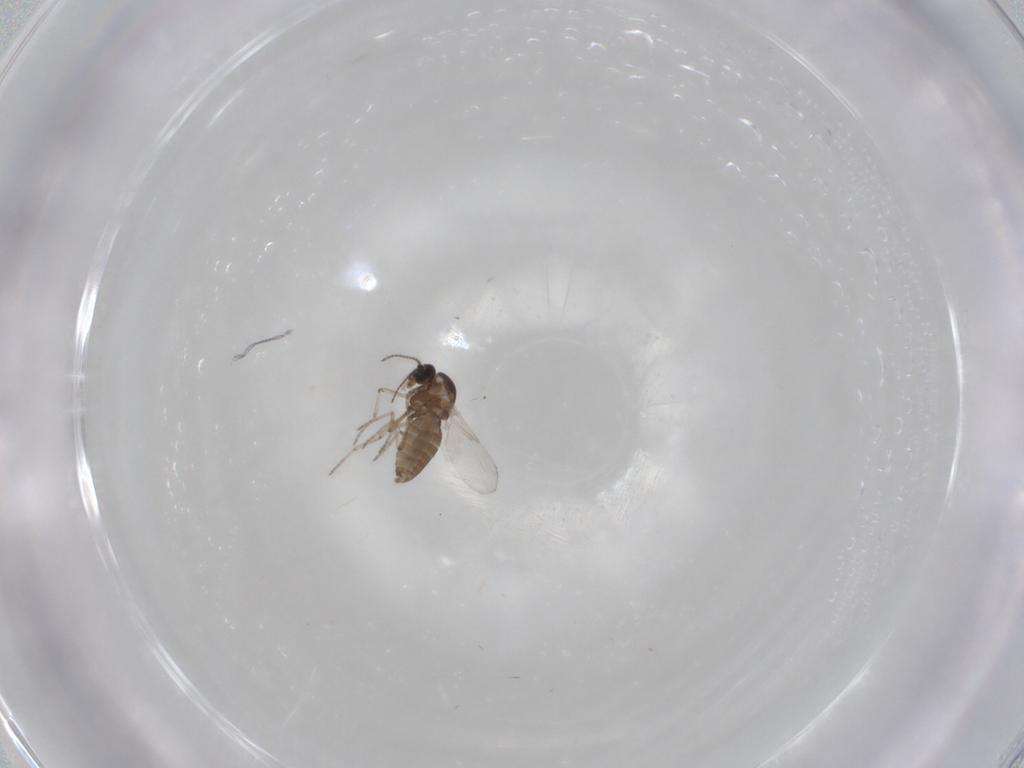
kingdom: Animalia
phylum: Arthropoda
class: Insecta
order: Diptera
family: Ceratopogonidae
